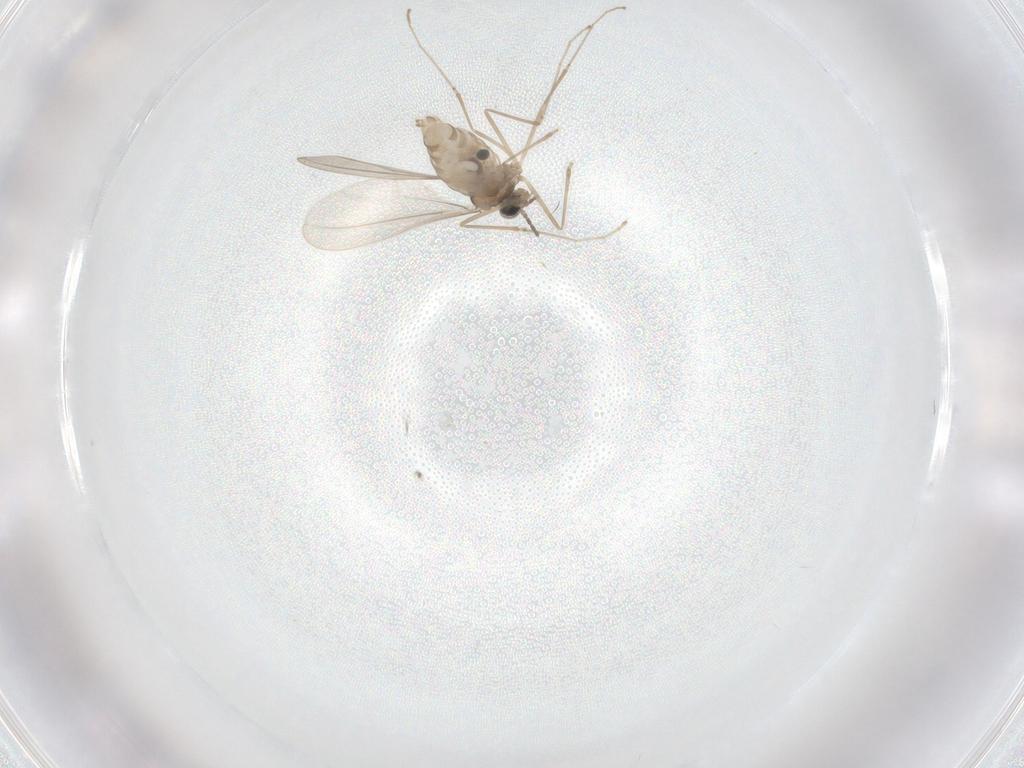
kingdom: Animalia
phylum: Arthropoda
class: Insecta
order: Diptera
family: Cecidomyiidae
